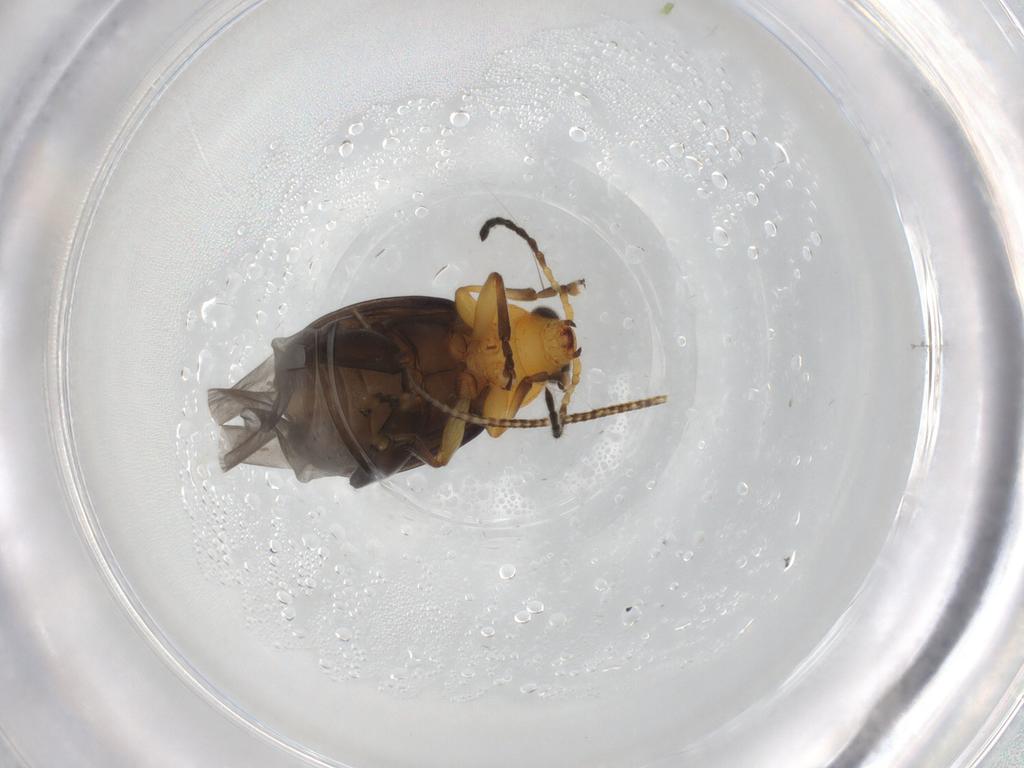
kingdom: Animalia
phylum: Arthropoda
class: Insecta
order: Coleoptera
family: Chrysomelidae
